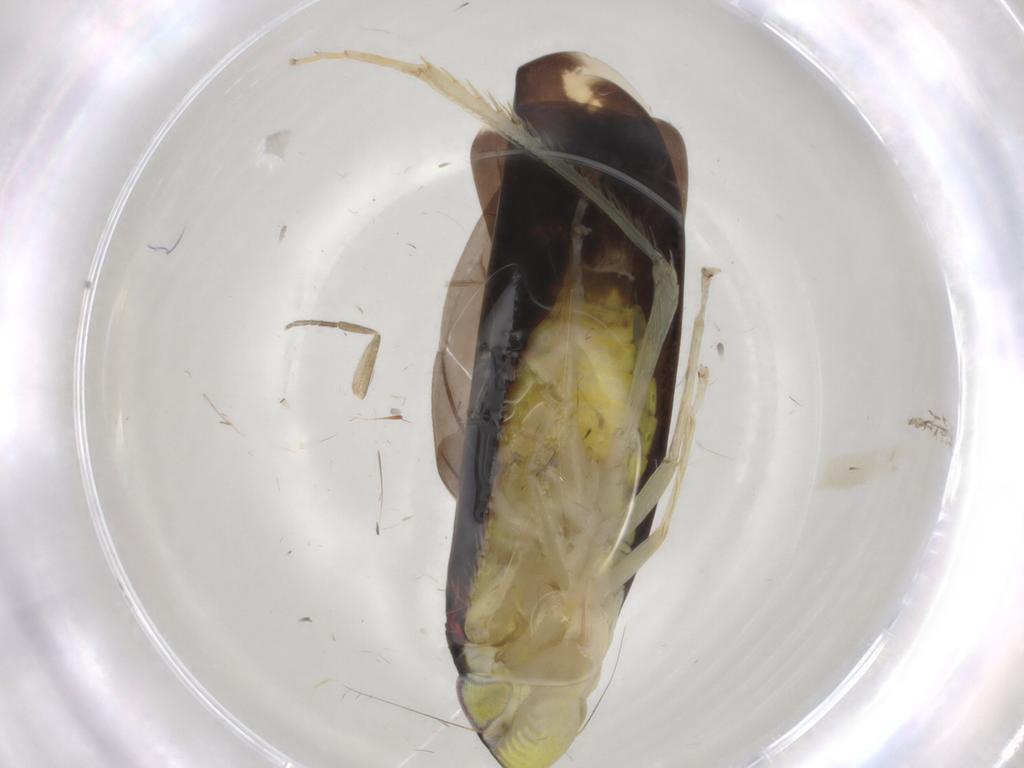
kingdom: Animalia
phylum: Arthropoda
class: Insecta
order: Hemiptera
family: Cicadellidae
